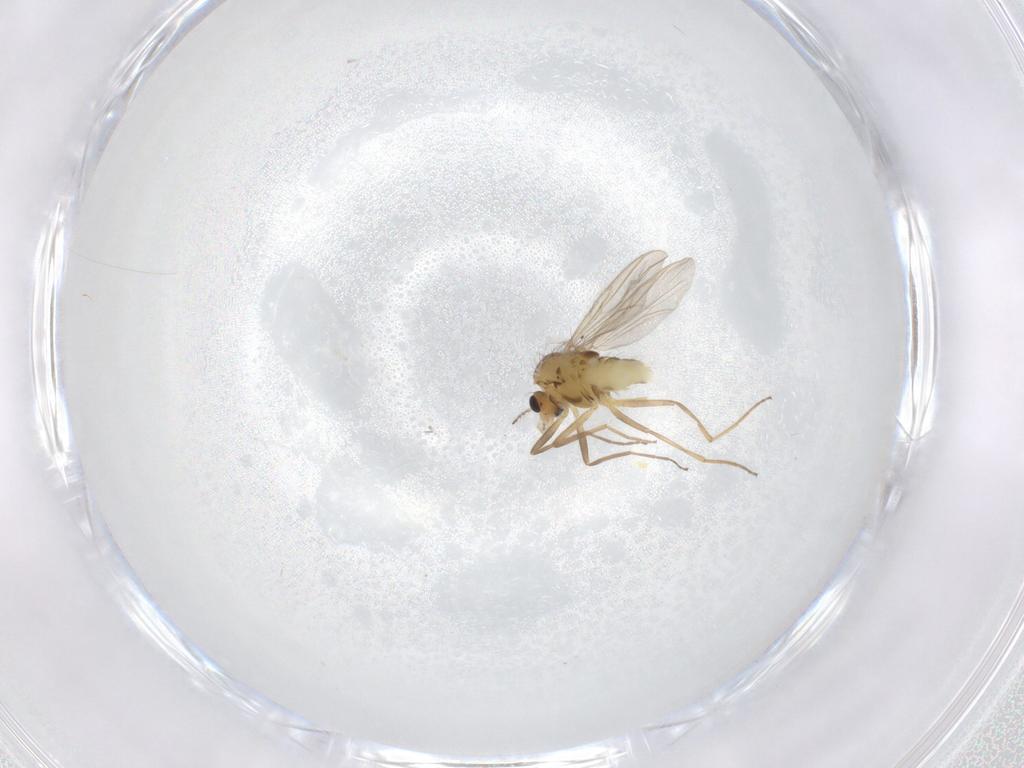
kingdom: Animalia
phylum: Arthropoda
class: Insecta
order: Diptera
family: Chironomidae
